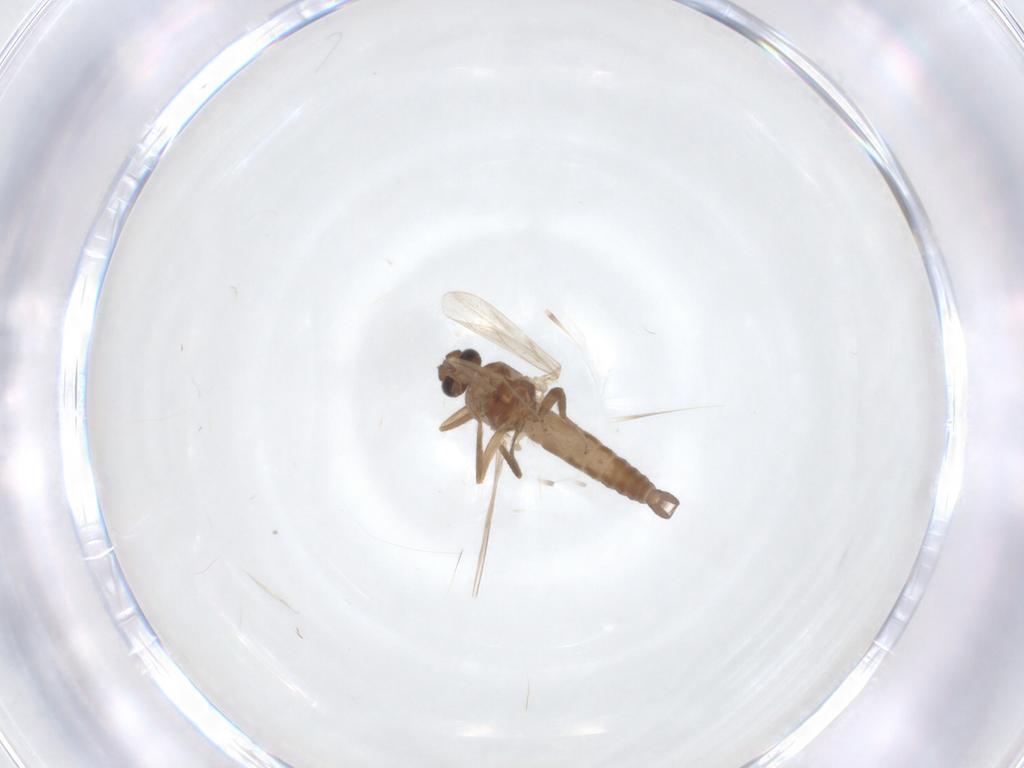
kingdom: Animalia
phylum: Arthropoda
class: Insecta
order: Diptera
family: Ceratopogonidae
